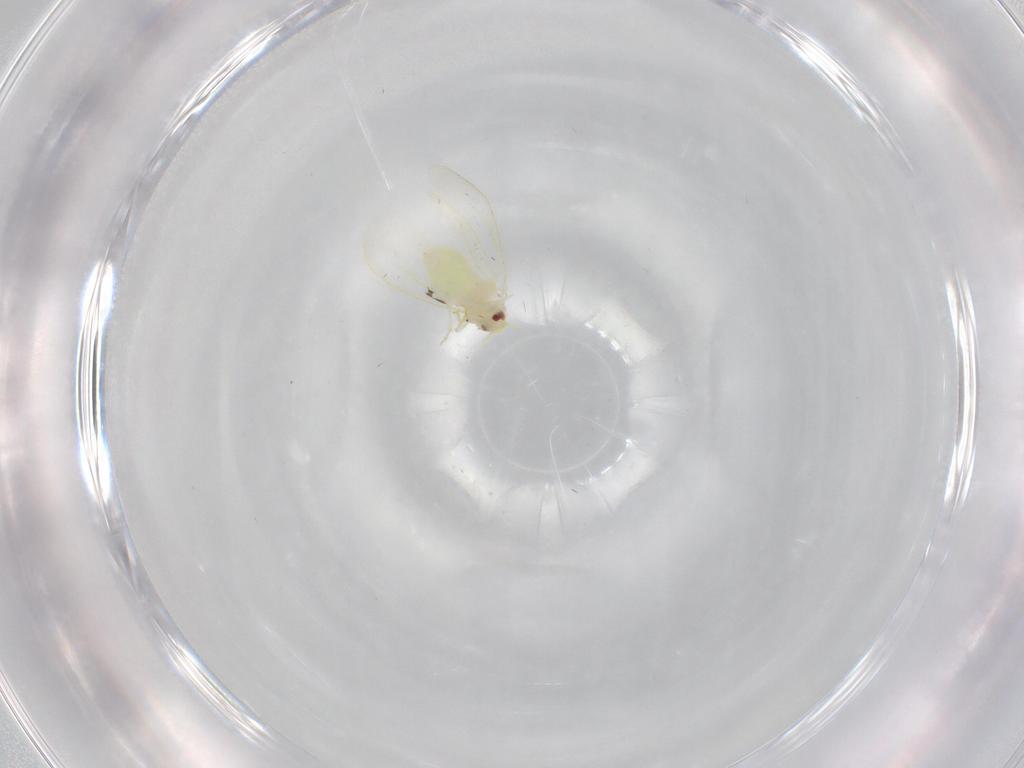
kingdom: Animalia
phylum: Arthropoda
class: Insecta
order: Hemiptera
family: Aleyrodidae
